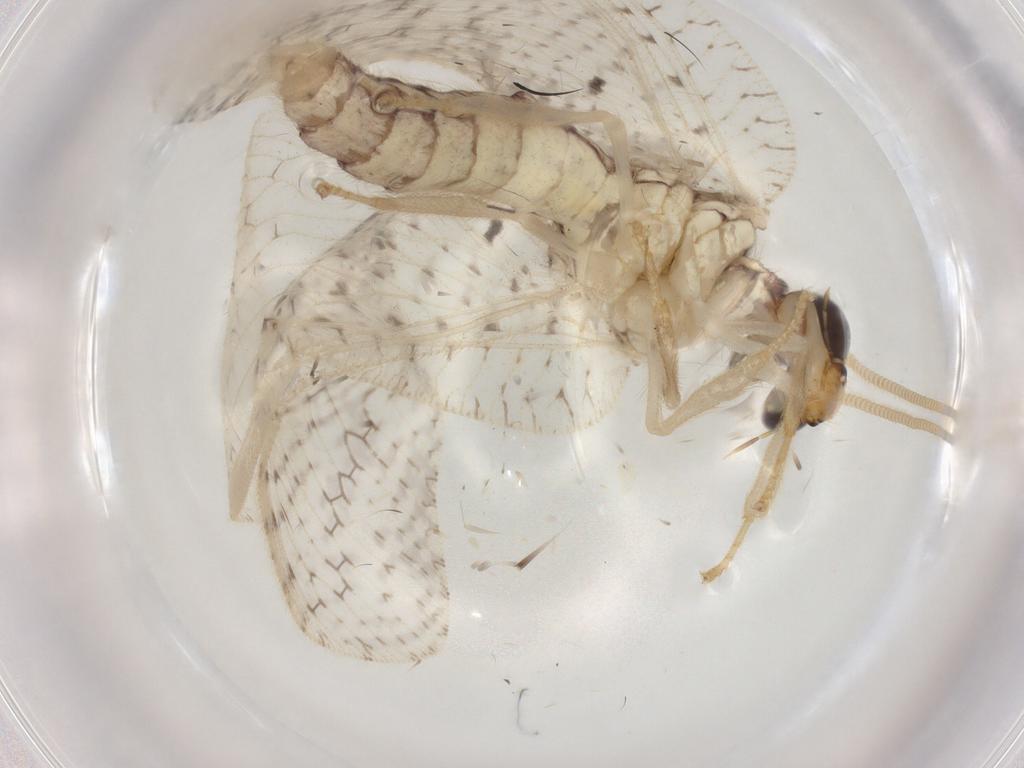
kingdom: Animalia
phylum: Arthropoda
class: Insecta
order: Neuroptera
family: Hemerobiidae
